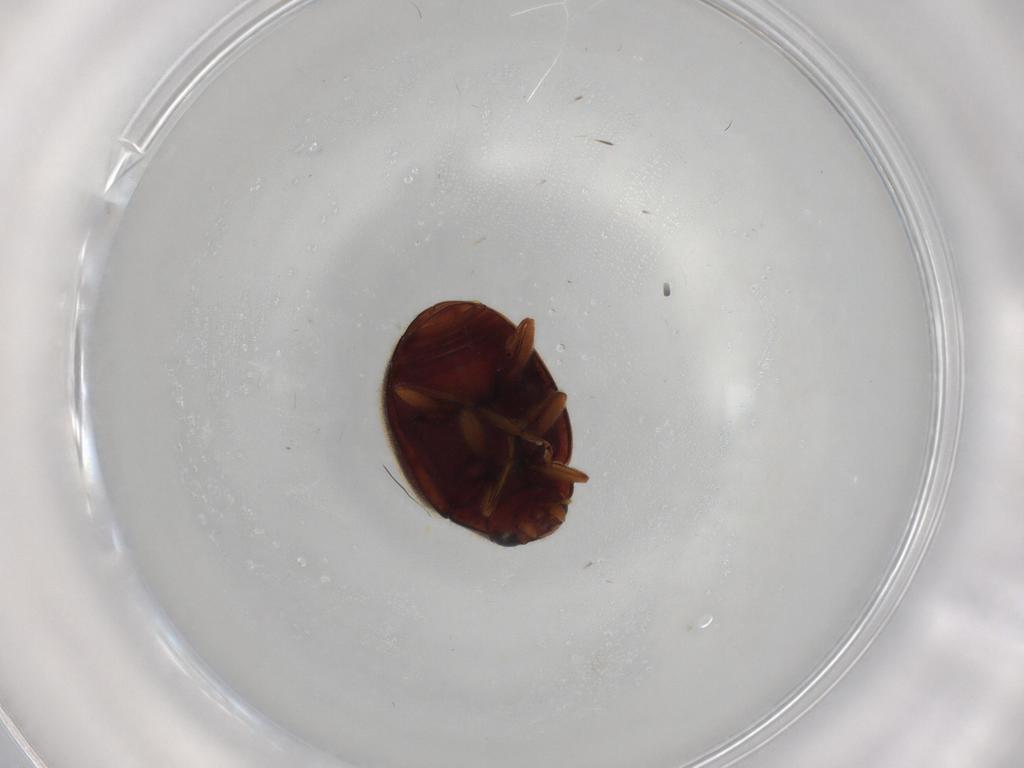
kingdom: Animalia
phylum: Arthropoda
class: Insecta
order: Coleoptera
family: Coccinellidae
